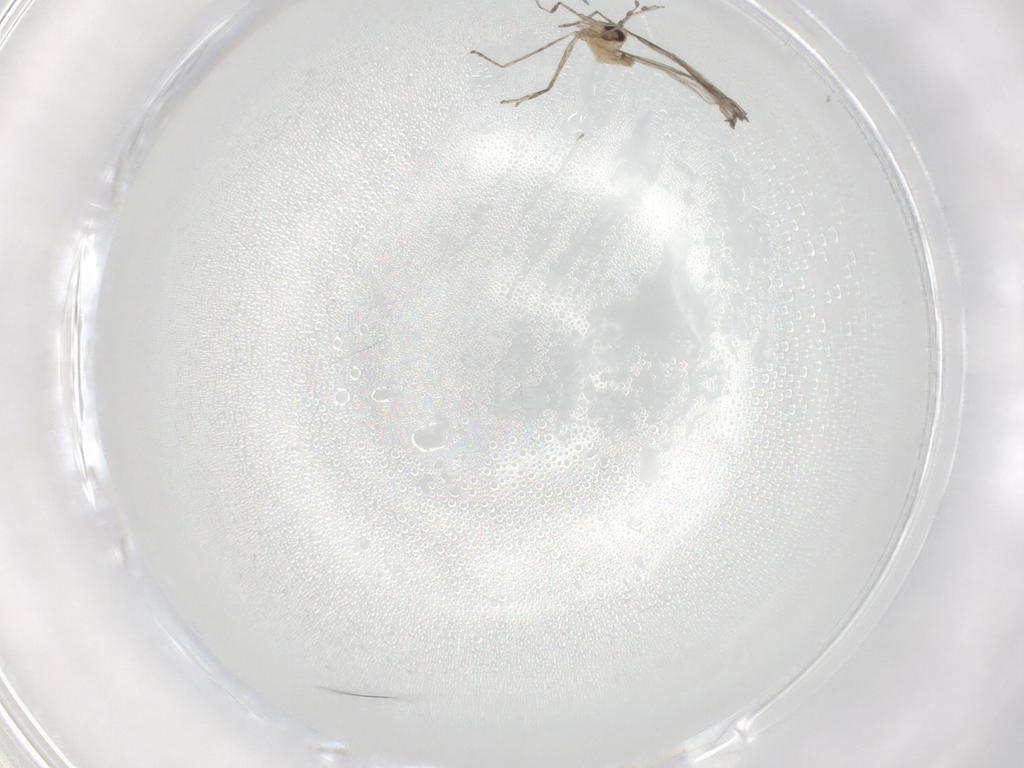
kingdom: Animalia
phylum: Arthropoda
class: Insecta
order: Diptera
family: Cecidomyiidae
